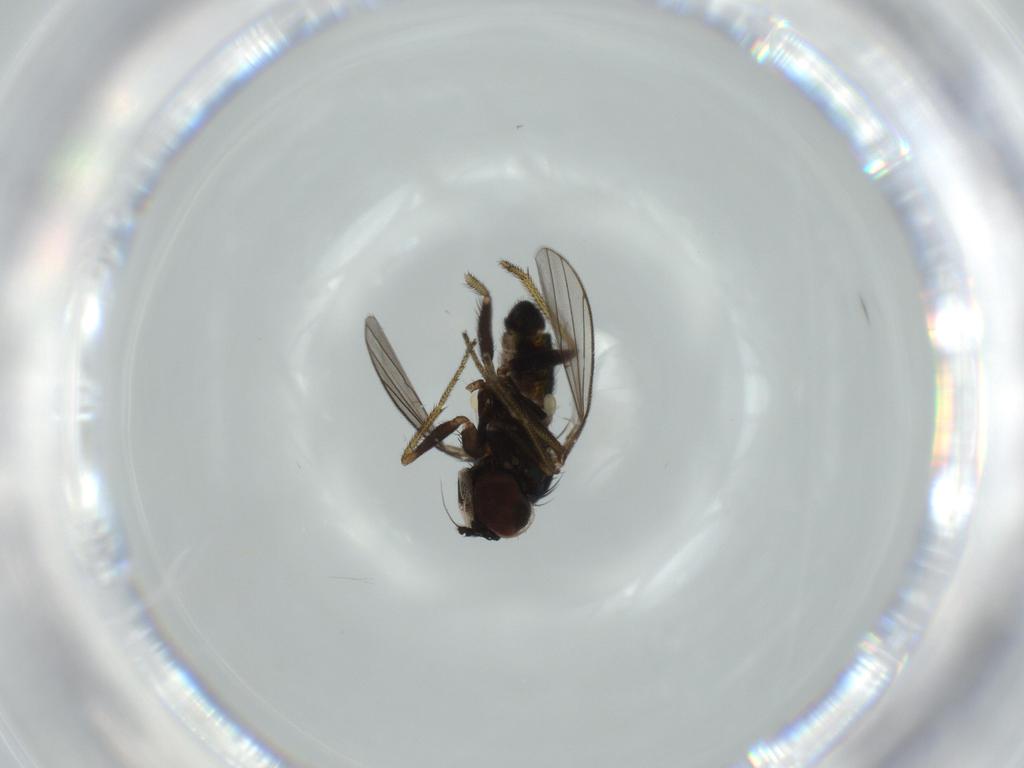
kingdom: Animalia
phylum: Arthropoda
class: Insecta
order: Diptera
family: Dolichopodidae
